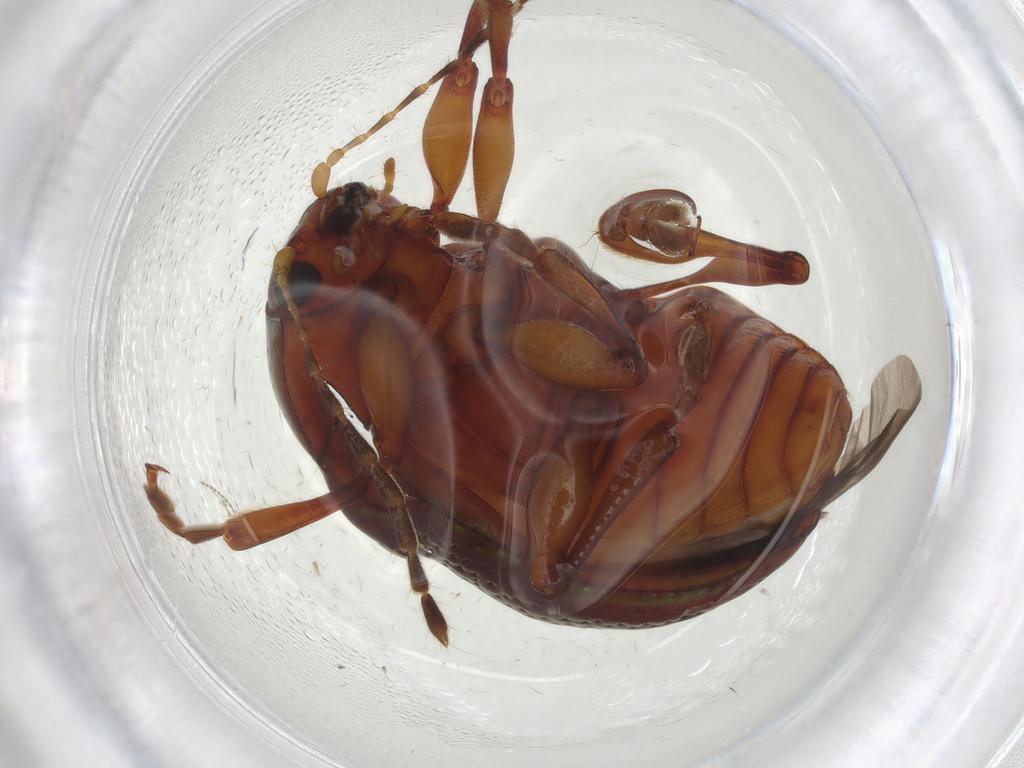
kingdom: Animalia
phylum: Arthropoda
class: Insecta
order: Coleoptera
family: Chrysomelidae
